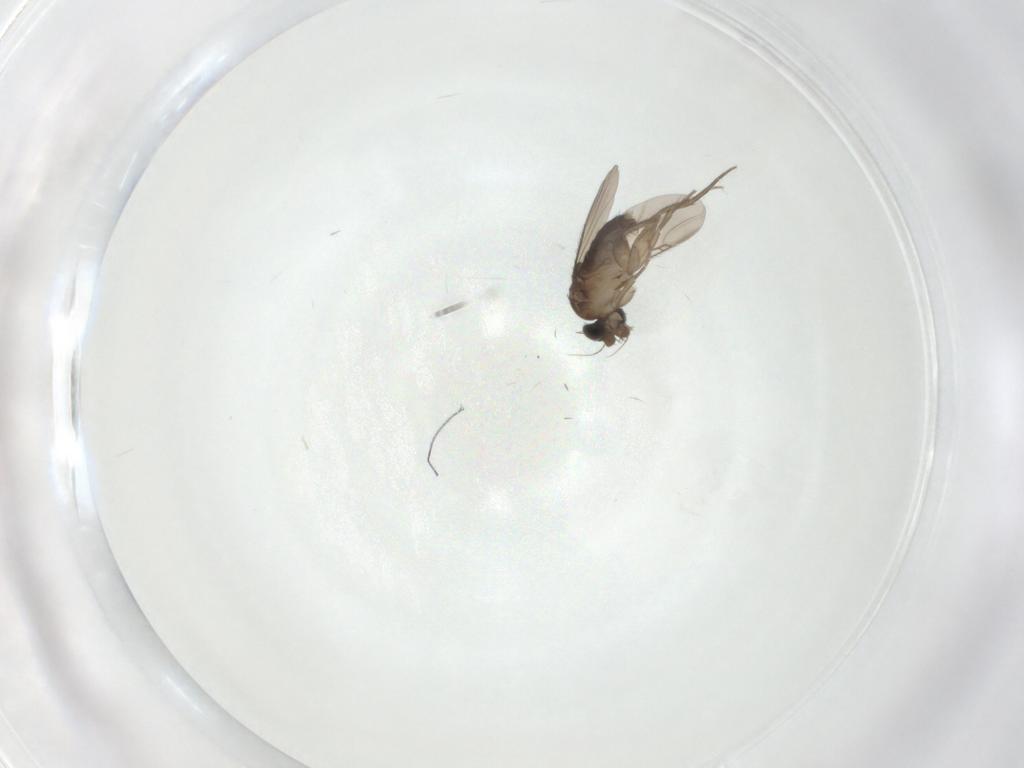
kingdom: Animalia
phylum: Arthropoda
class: Insecta
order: Diptera
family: Phoridae
